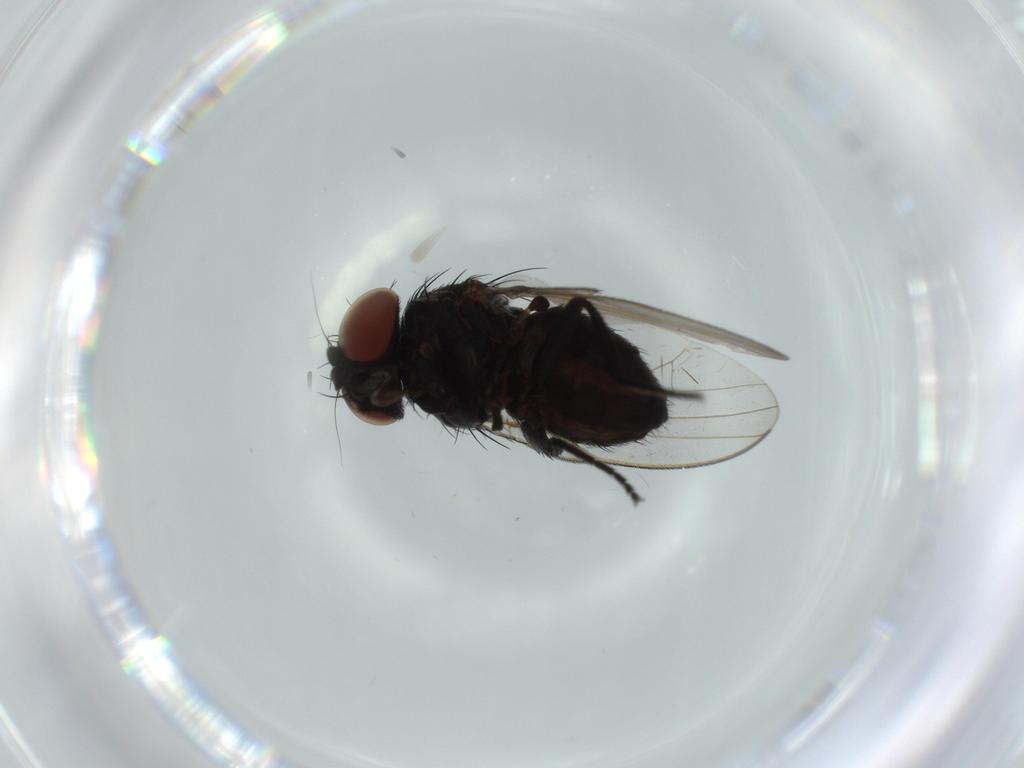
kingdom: Animalia
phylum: Arthropoda
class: Insecta
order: Diptera
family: Milichiidae
